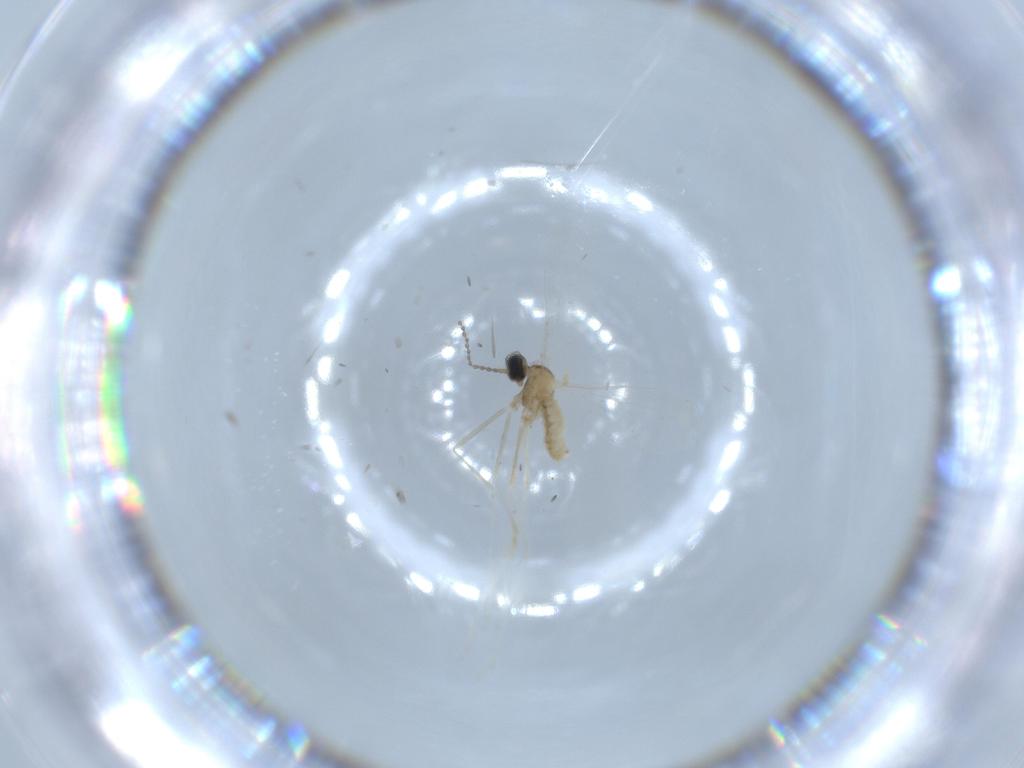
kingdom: Animalia
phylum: Arthropoda
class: Insecta
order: Diptera
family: Cecidomyiidae
